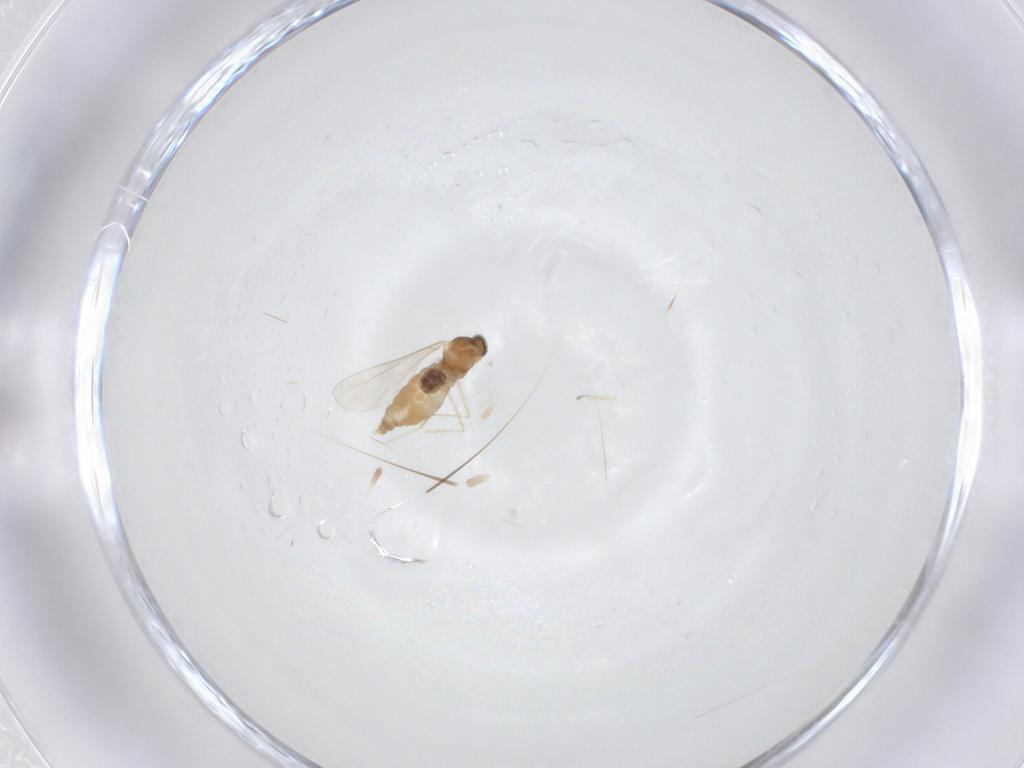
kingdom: Animalia
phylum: Arthropoda
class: Insecta
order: Diptera
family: Cecidomyiidae
